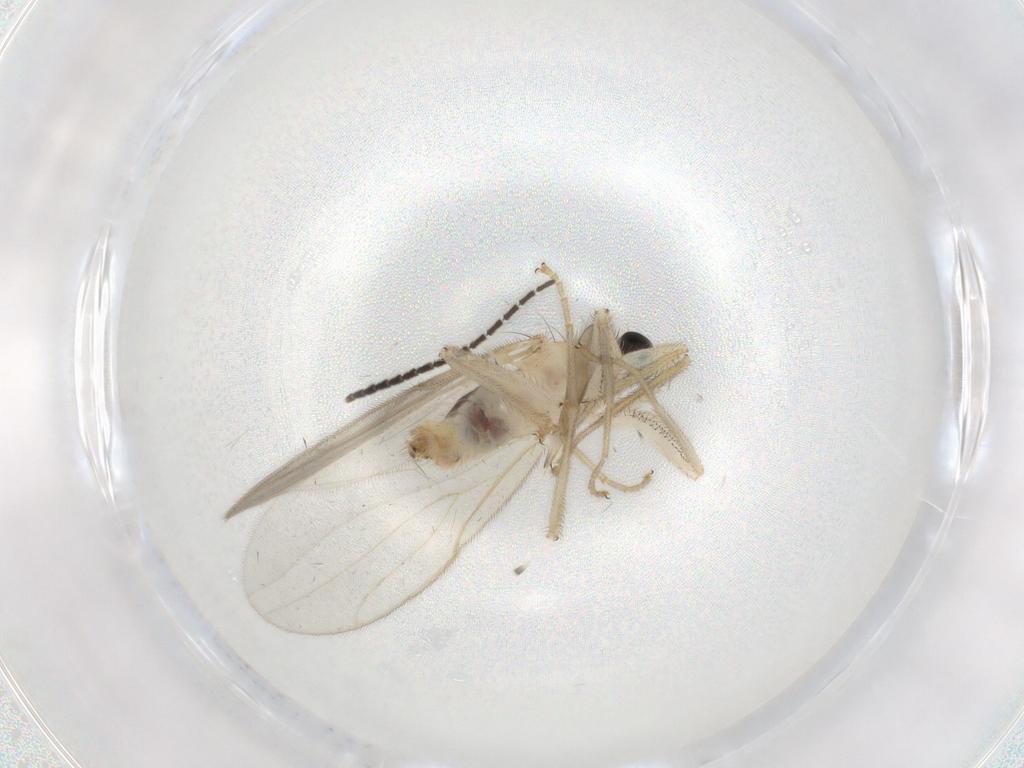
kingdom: Animalia
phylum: Arthropoda
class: Insecta
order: Diptera
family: Hybotidae
